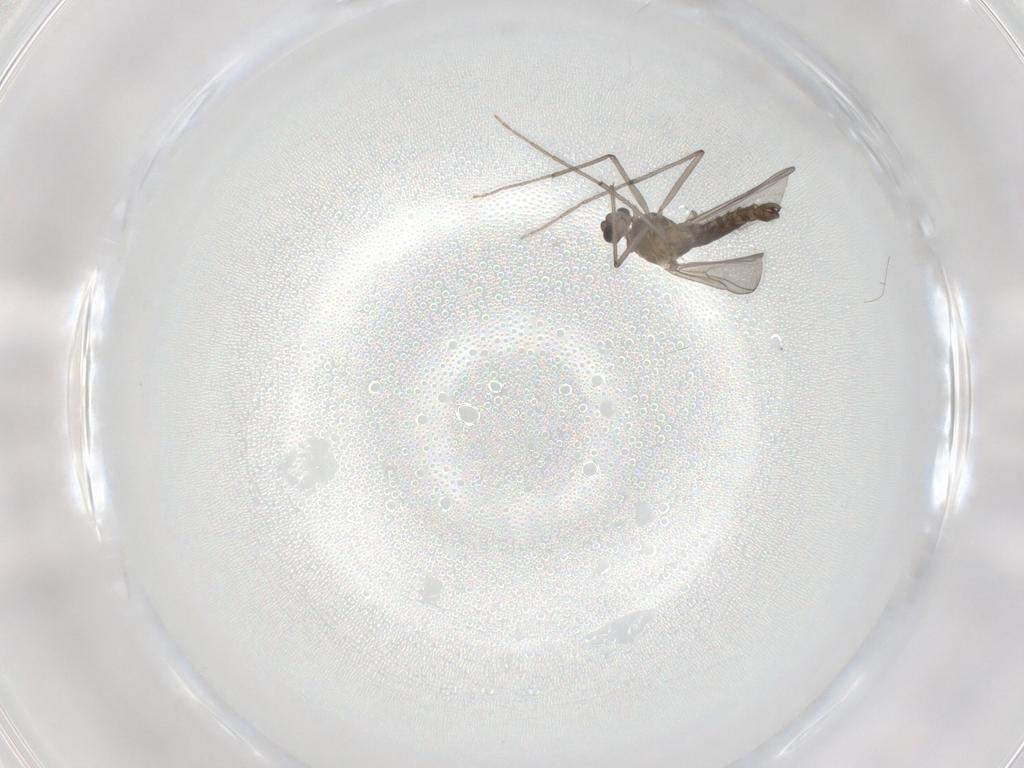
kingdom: Animalia
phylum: Arthropoda
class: Insecta
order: Diptera
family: Chironomidae
